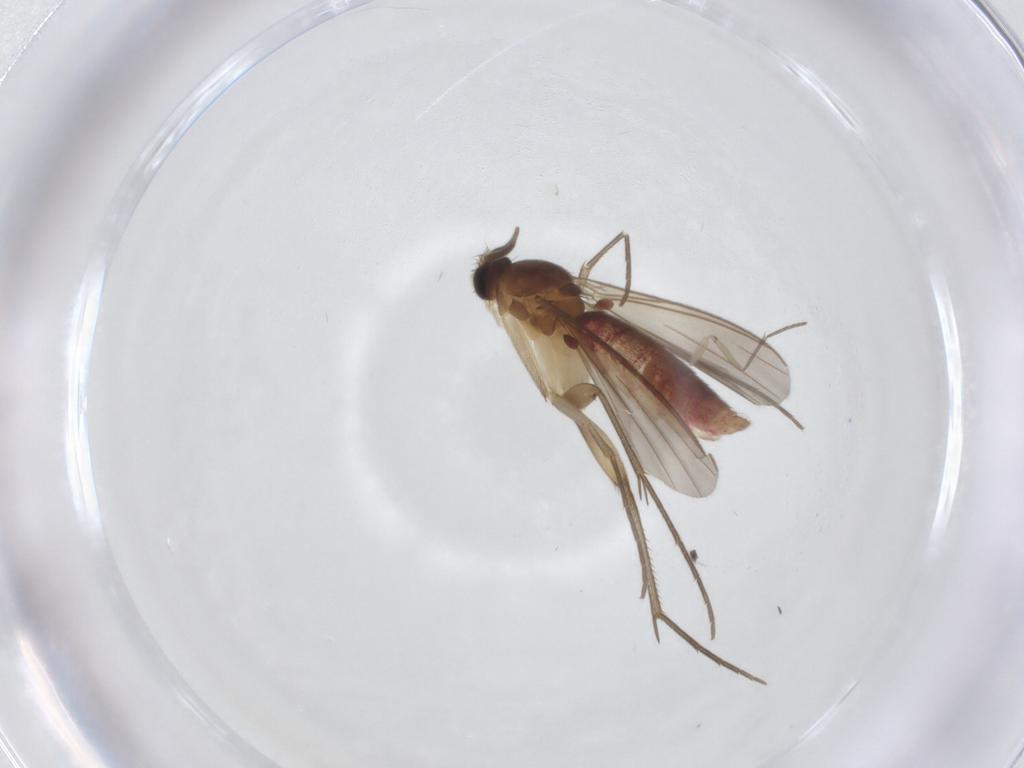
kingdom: Animalia
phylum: Arthropoda
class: Insecta
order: Diptera
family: Mycetophilidae
